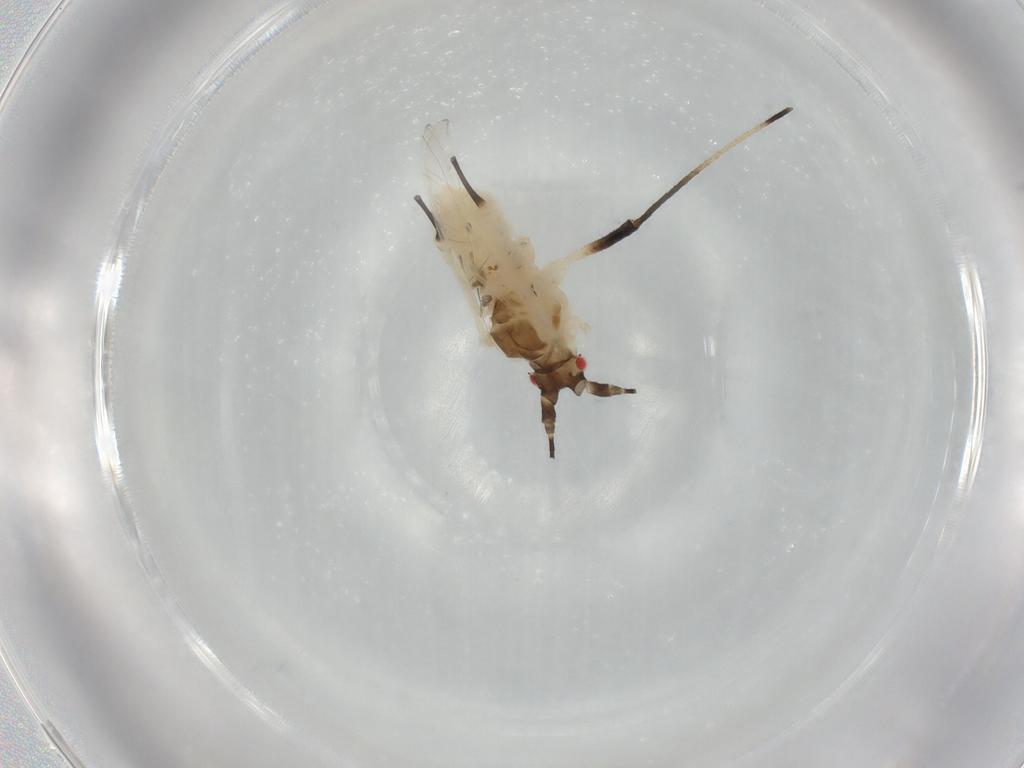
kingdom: Animalia
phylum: Arthropoda
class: Insecta
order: Hemiptera
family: Aphididae
